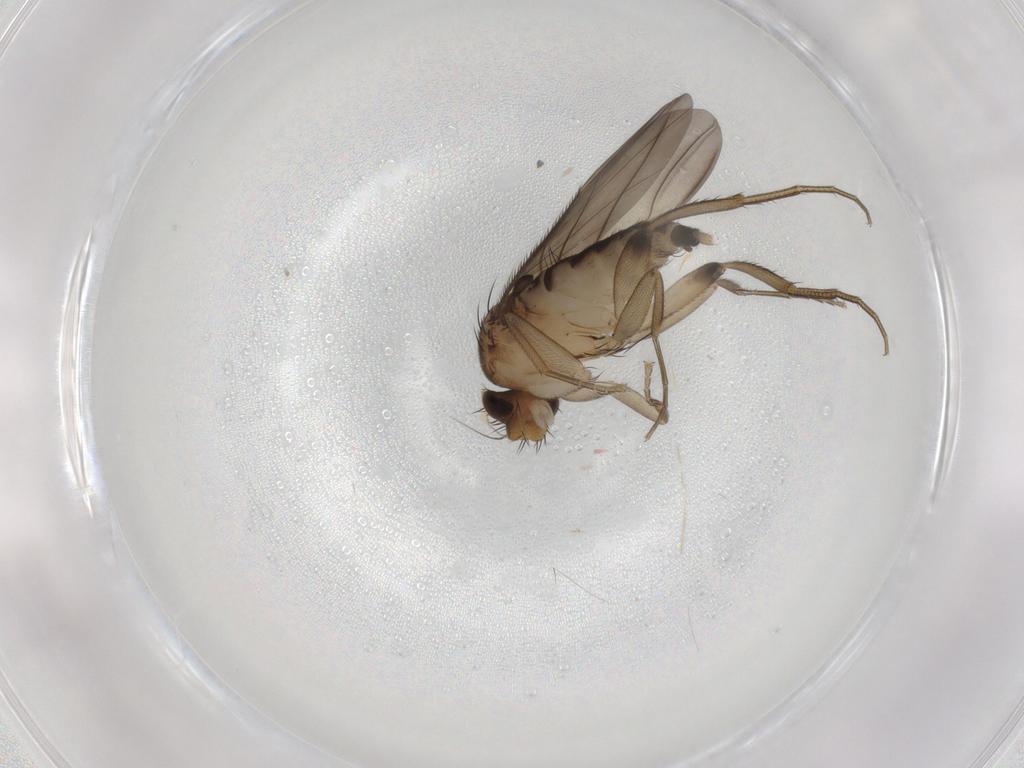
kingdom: Animalia
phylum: Arthropoda
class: Insecta
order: Diptera
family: Phoridae
